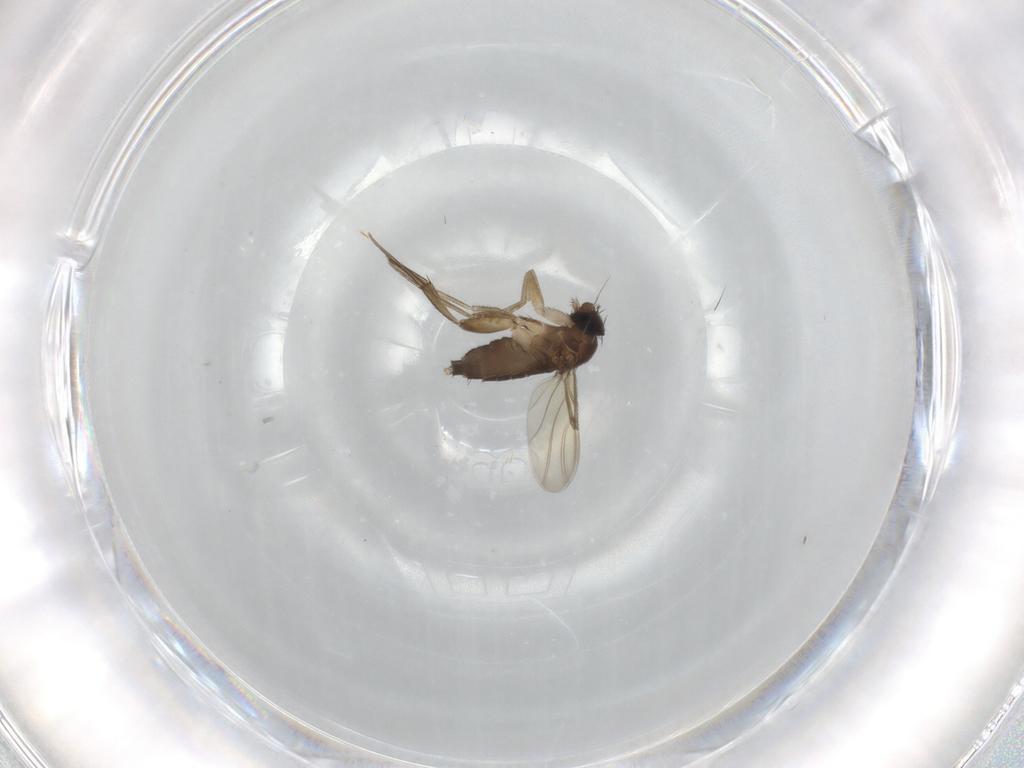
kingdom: Animalia
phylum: Arthropoda
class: Insecta
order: Diptera
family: Phoridae
